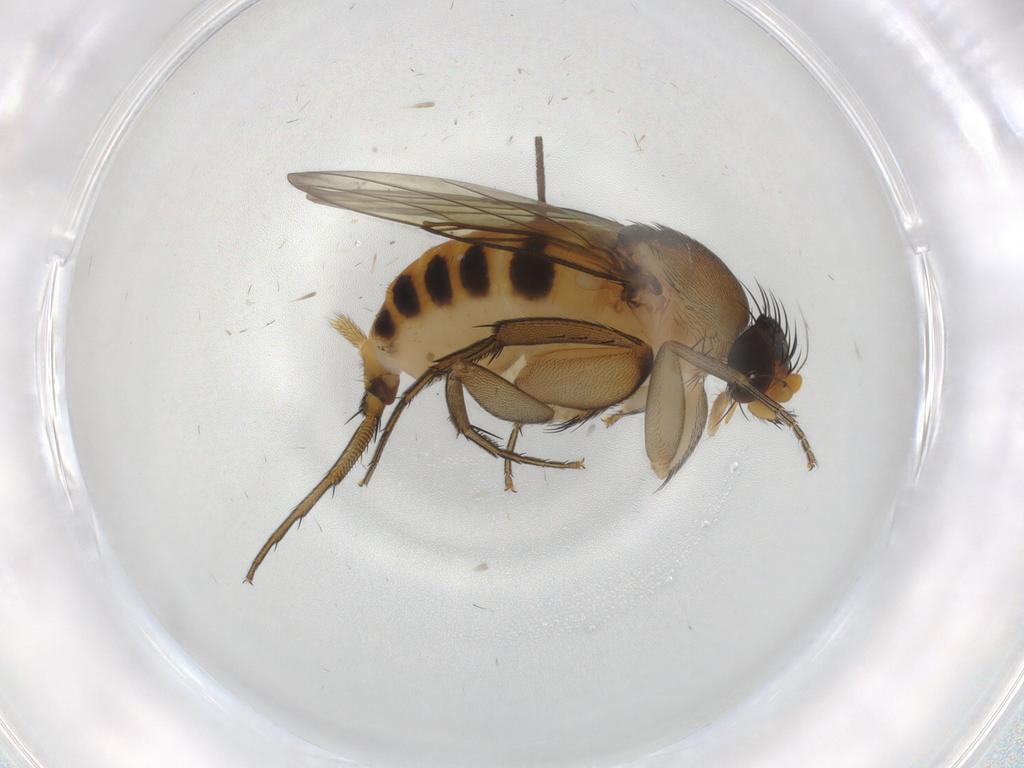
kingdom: Animalia
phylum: Arthropoda
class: Insecta
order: Diptera
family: Phoridae
